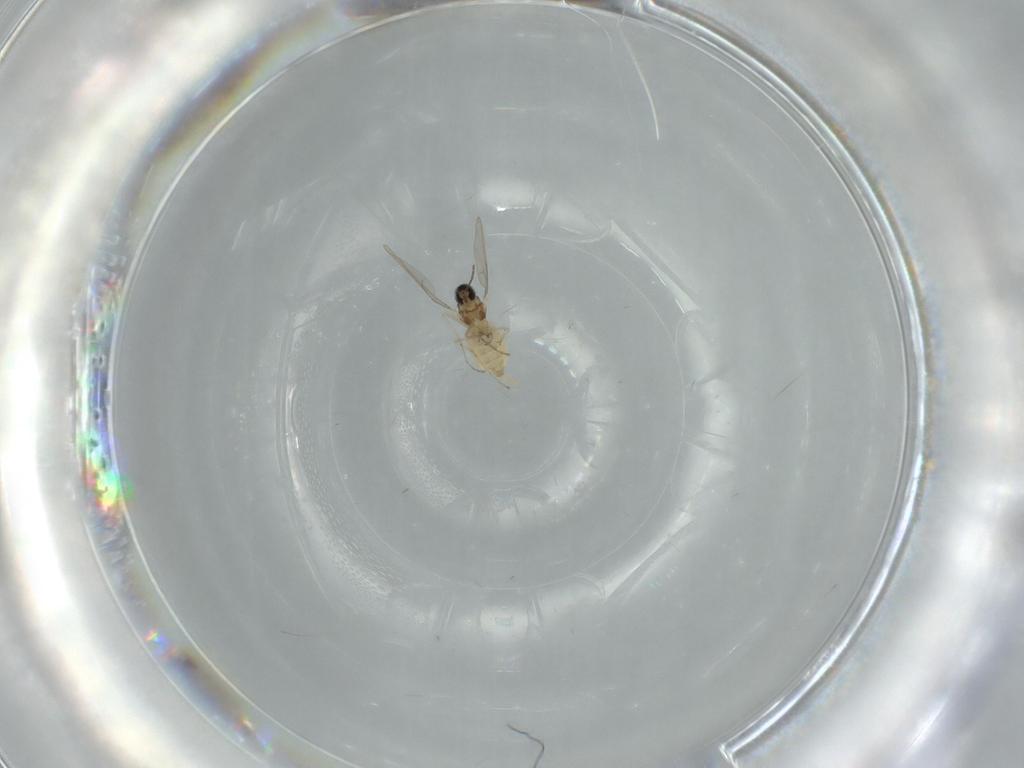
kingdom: Animalia
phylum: Arthropoda
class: Insecta
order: Diptera
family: Cecidomyiidae
